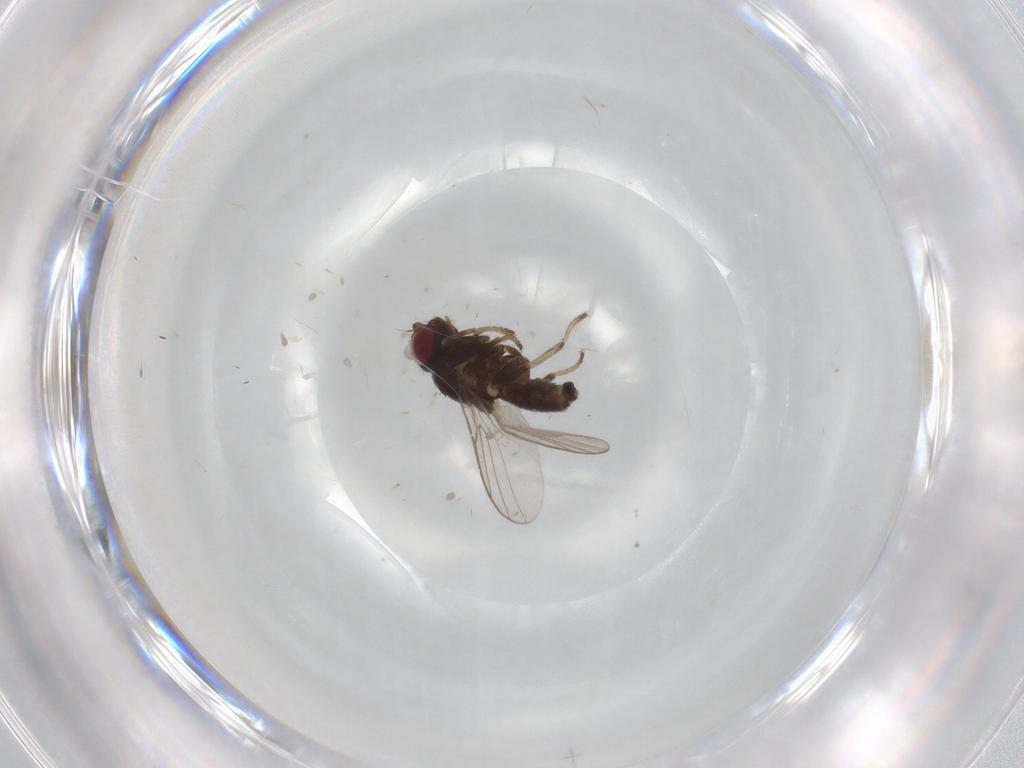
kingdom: Animalia
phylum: Arthropoda
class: Insecta
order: Diptera
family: Chloropidae
